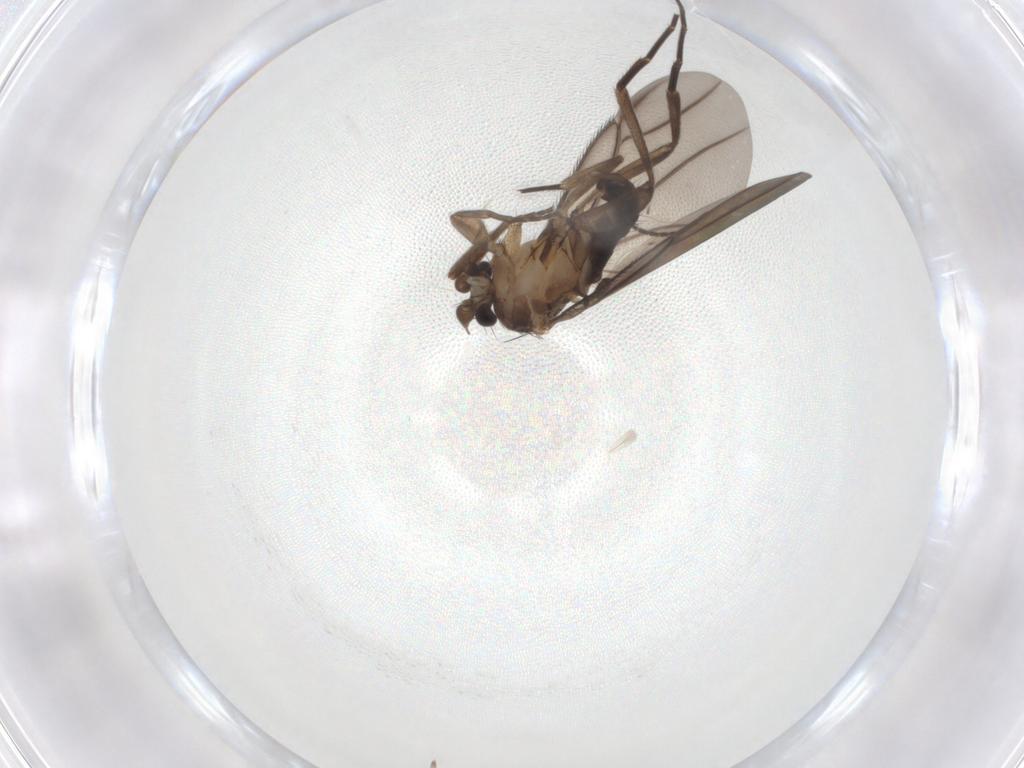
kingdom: Animalia
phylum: Arthropoda
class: Insecta
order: Diptera
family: Phoridae
